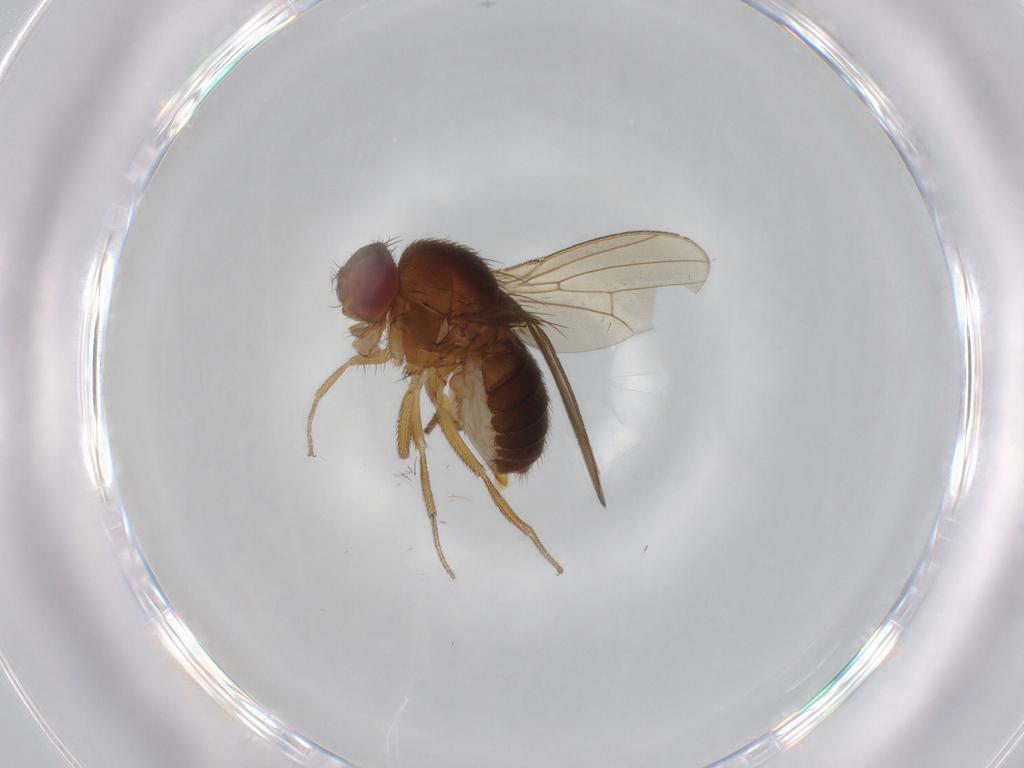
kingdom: Animalia
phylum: Arthropoda
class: Insecta
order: Diptera
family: Drosophilidae
